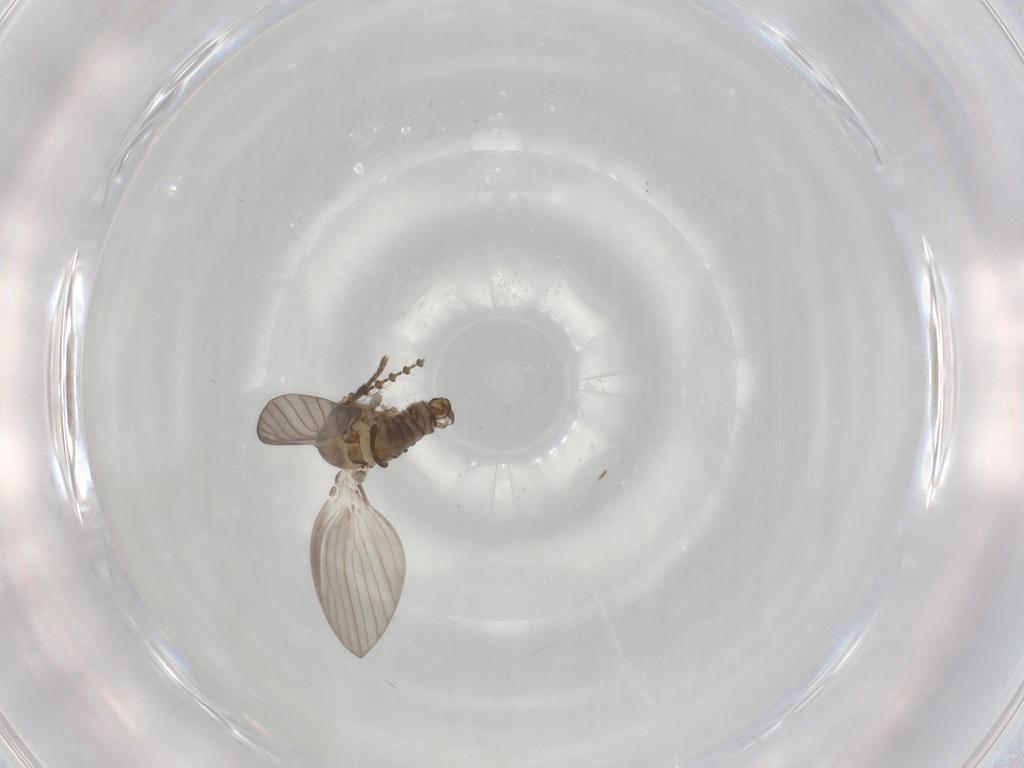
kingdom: Animalia
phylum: Arthropoda
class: Insecta
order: Diptera
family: Psychodidae
